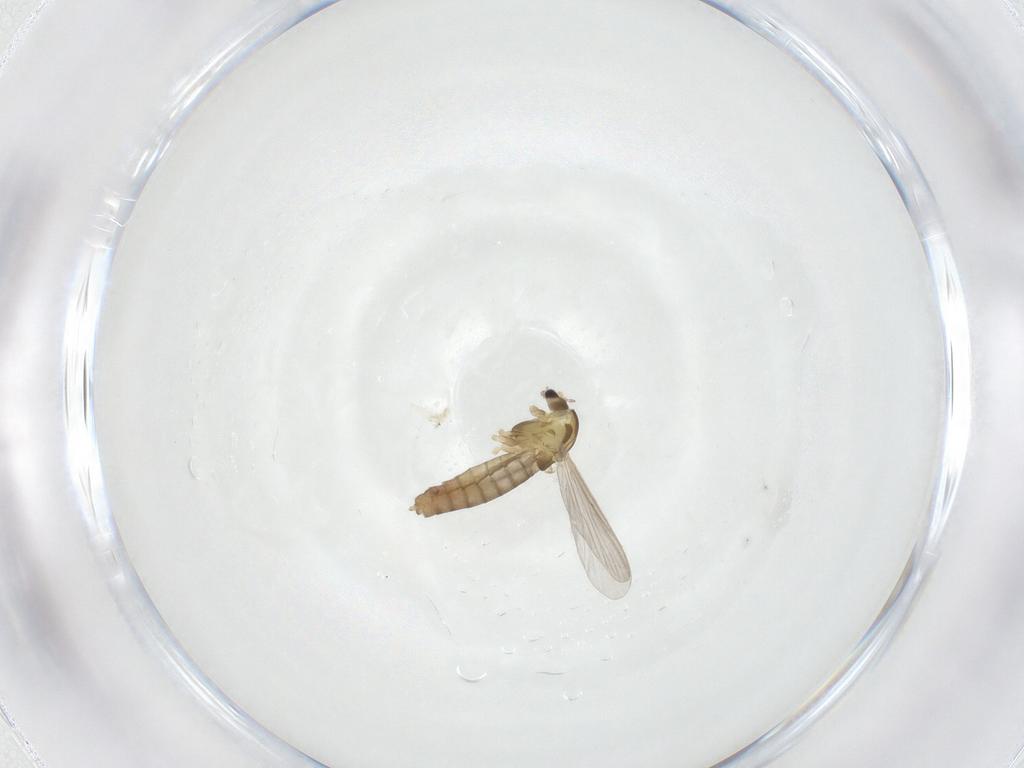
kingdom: Animalia
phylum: Arthropoda
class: Insecta
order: Diptera
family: Chironomidae
